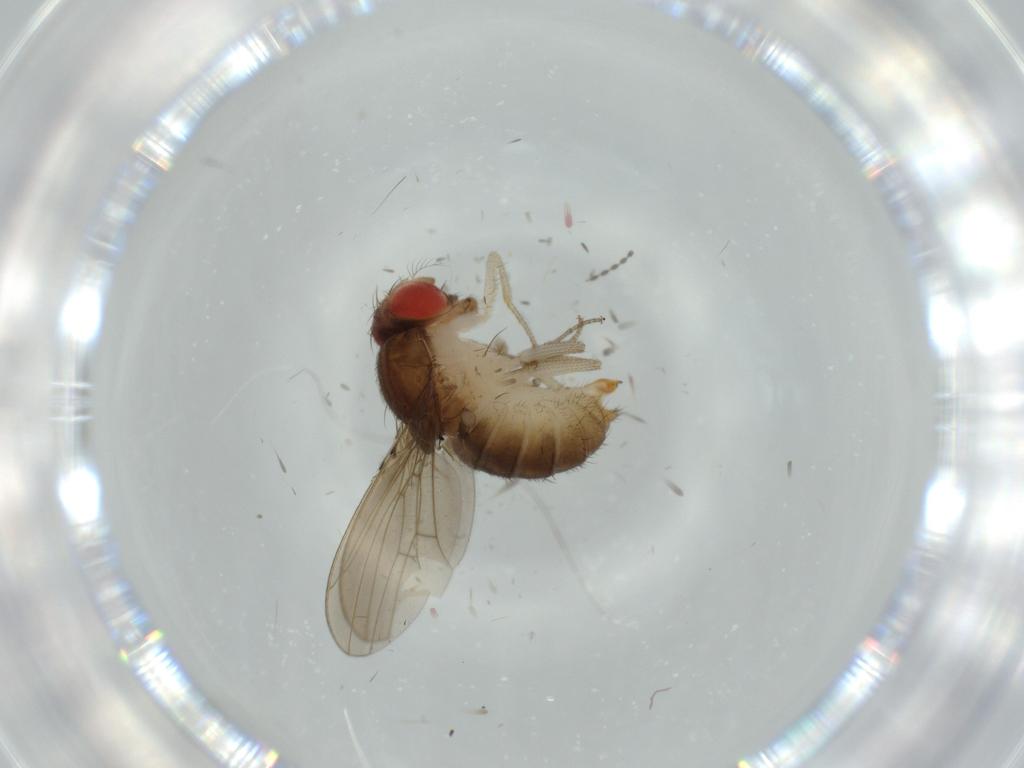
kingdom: Animalia
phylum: Arthropoda
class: Insecta
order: Diptera
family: Drosophilidae
